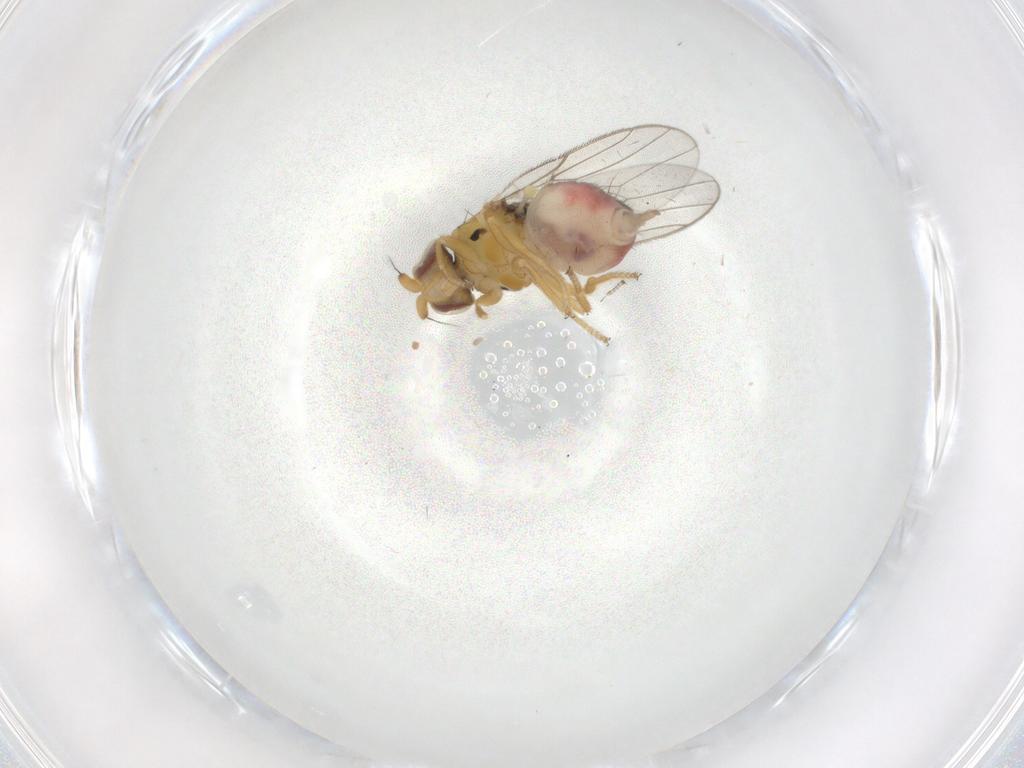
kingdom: Animalia
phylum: Arthropoda
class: Insecta
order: Diptera
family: Chloropidae
